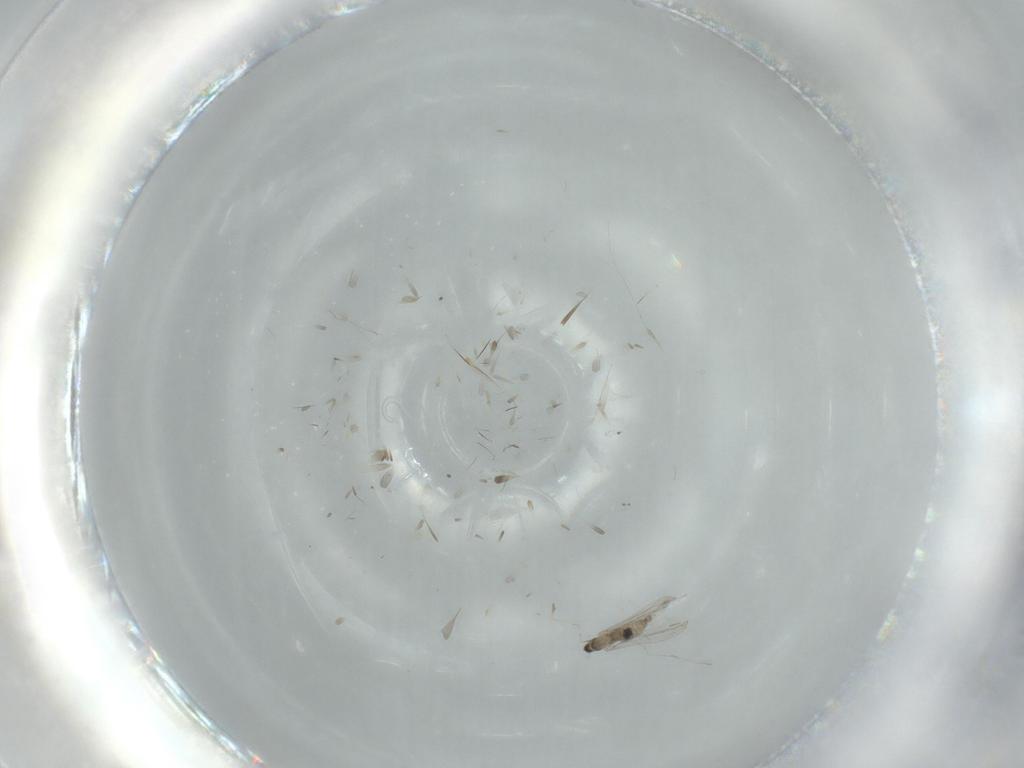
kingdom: Animalia
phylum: Arthropoda
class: Insecta
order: Diptera
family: Cecidomyiidae
